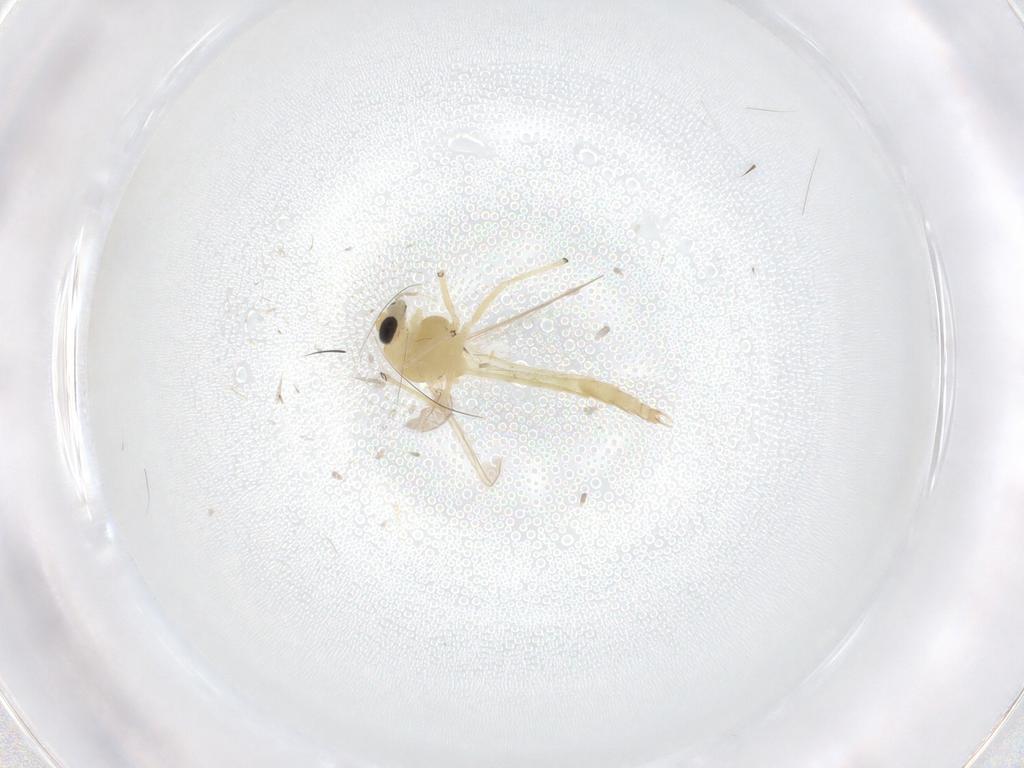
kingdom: Animalia
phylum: Arthropoda
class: Insecta
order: Diptera
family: Chironomidae
